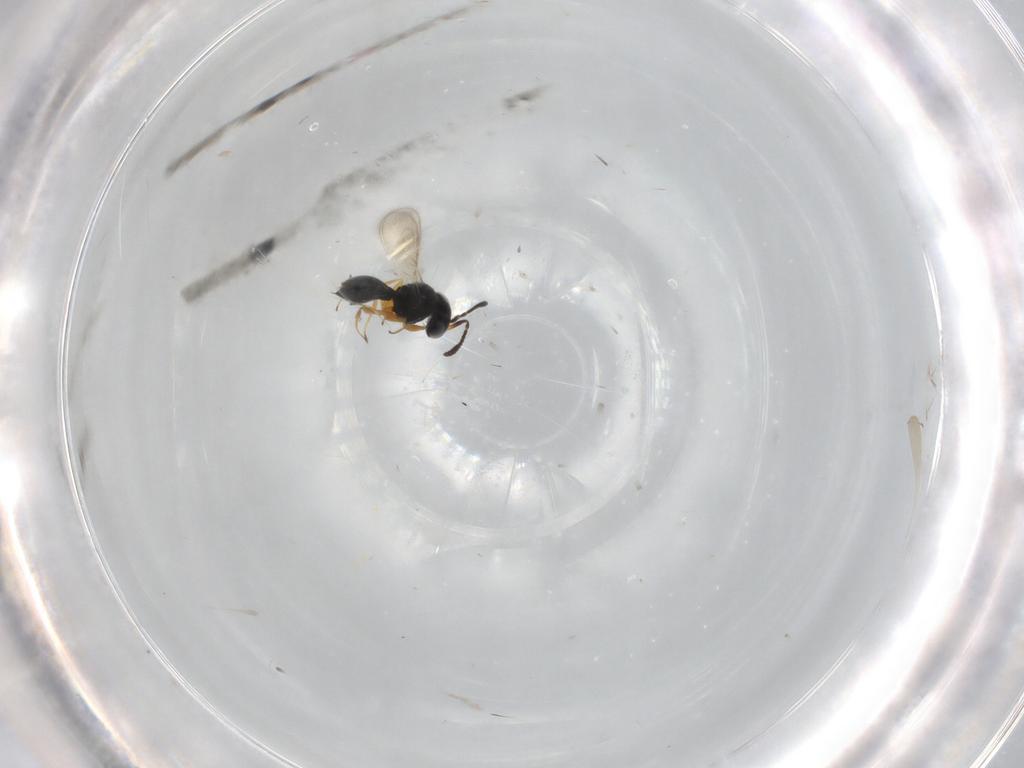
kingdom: Animalia
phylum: Arthropoda
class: Insecta
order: Hymenoptera
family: Scelionidae
